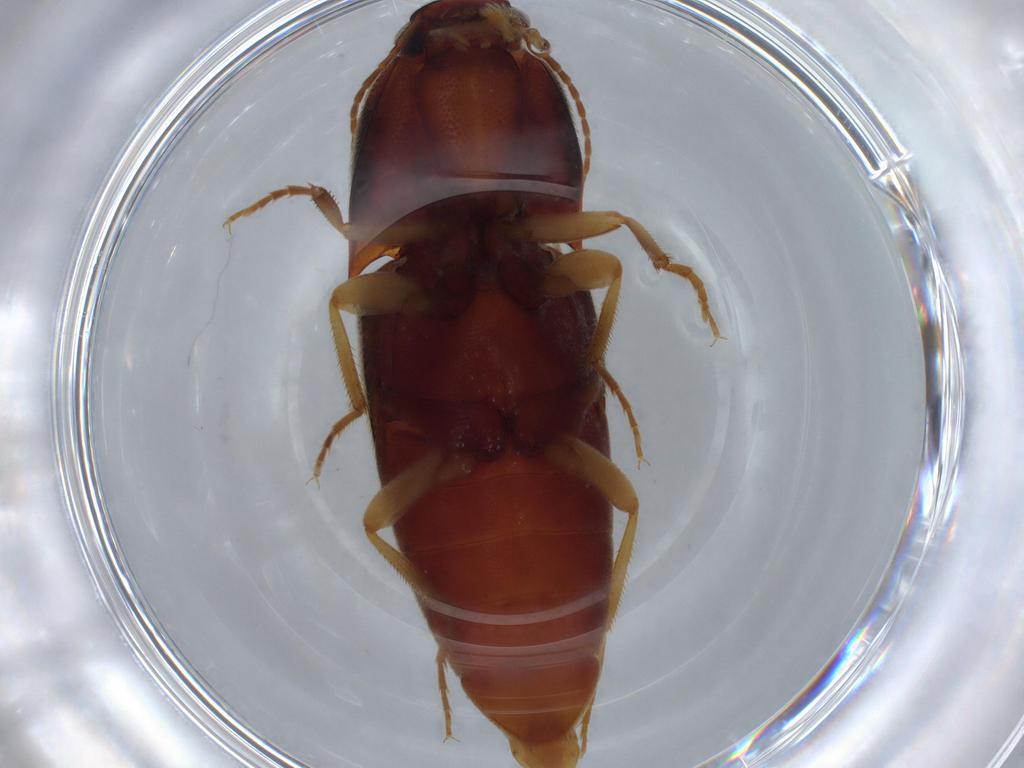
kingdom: Animalia
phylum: Arthropoda
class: Insecta
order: Coleoptera
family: Elateridae
